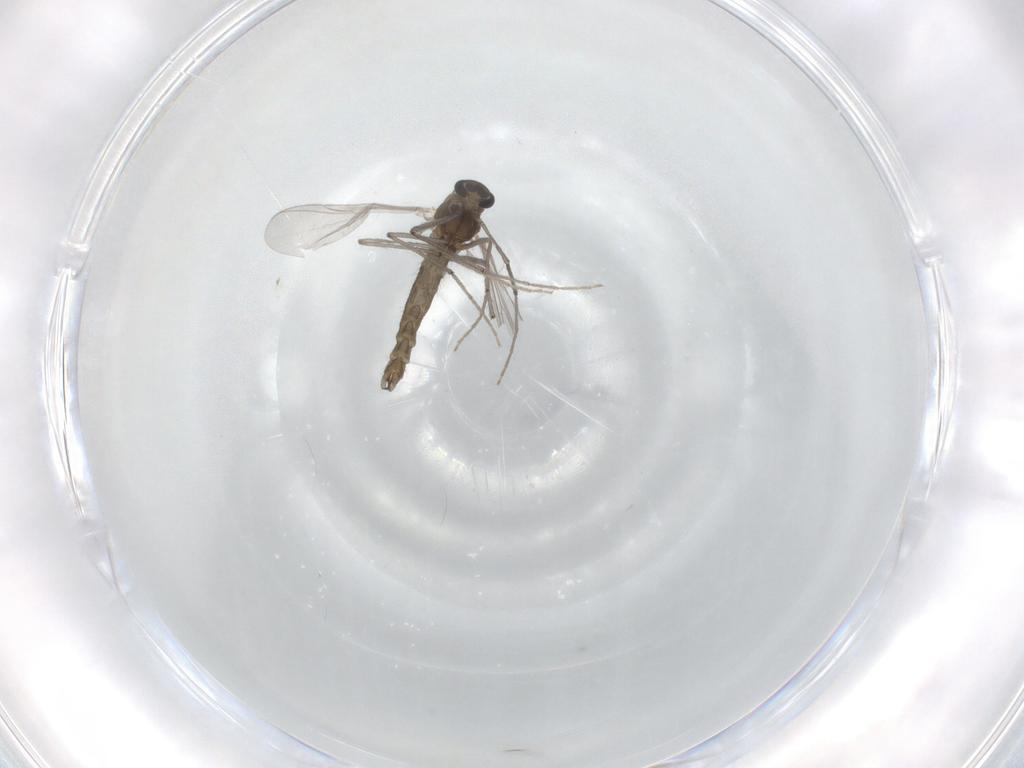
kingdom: Animalia
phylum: Arthropoda
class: Insecta
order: Diptera
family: Chironomidae
